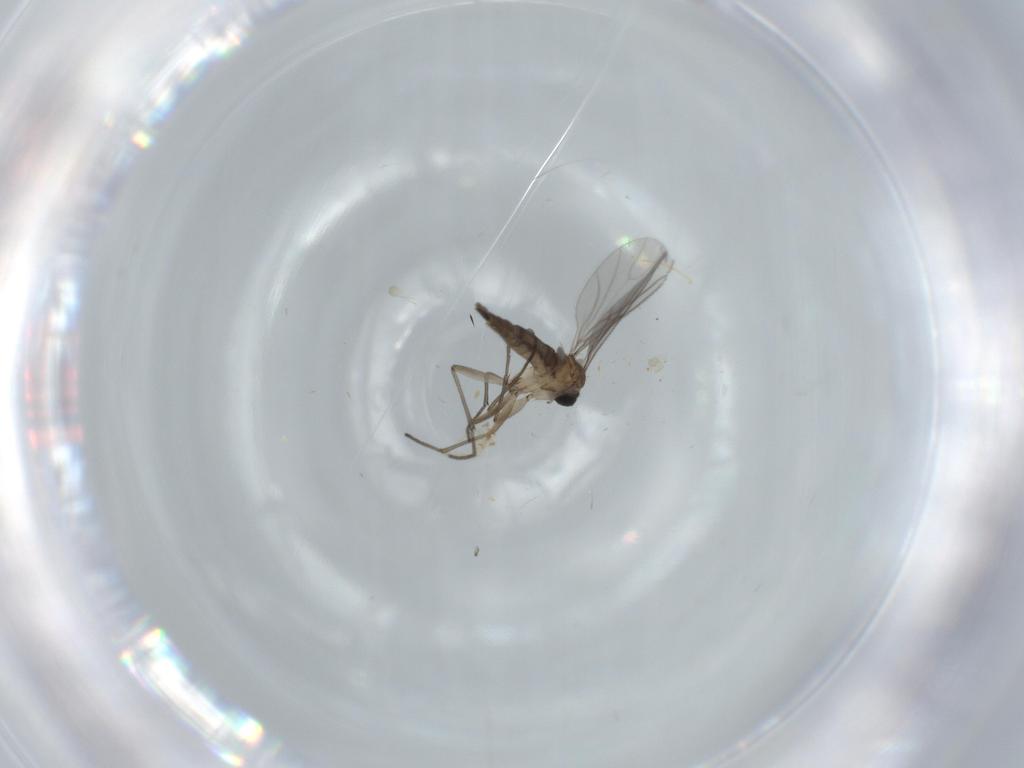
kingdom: Animalia
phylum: Arthropoda
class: Insecta
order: Diptera
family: Sciaridae
